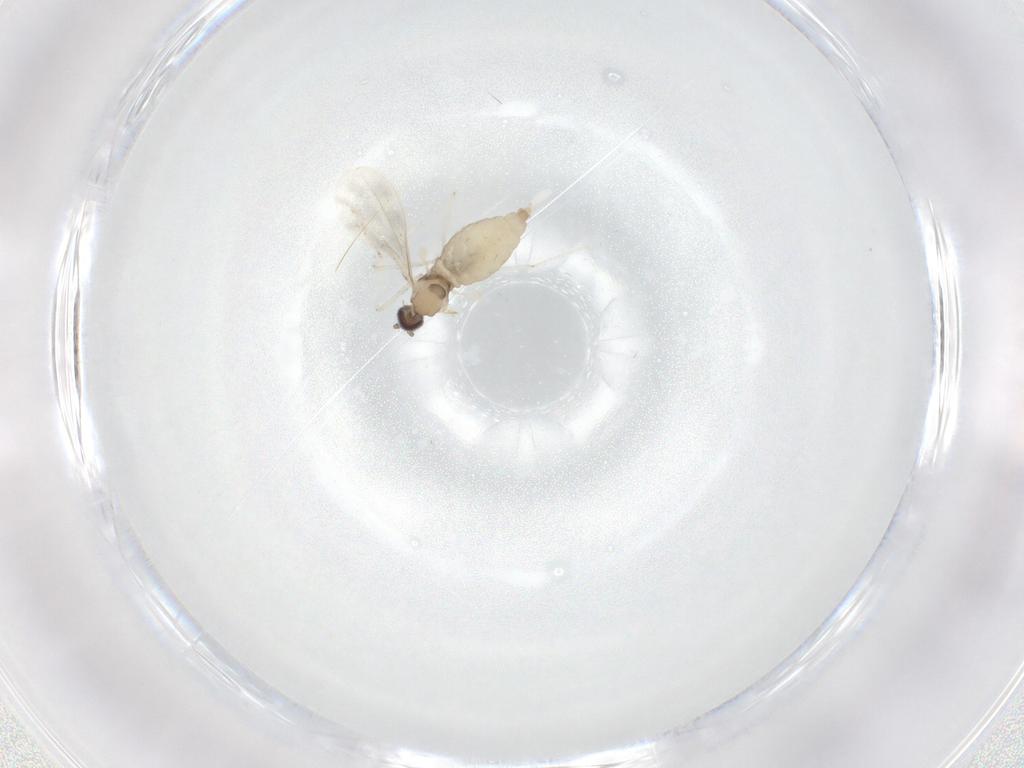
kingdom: Animalia
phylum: Arthropoda
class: Insecta
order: Diptera
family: Cecidomyiidae
